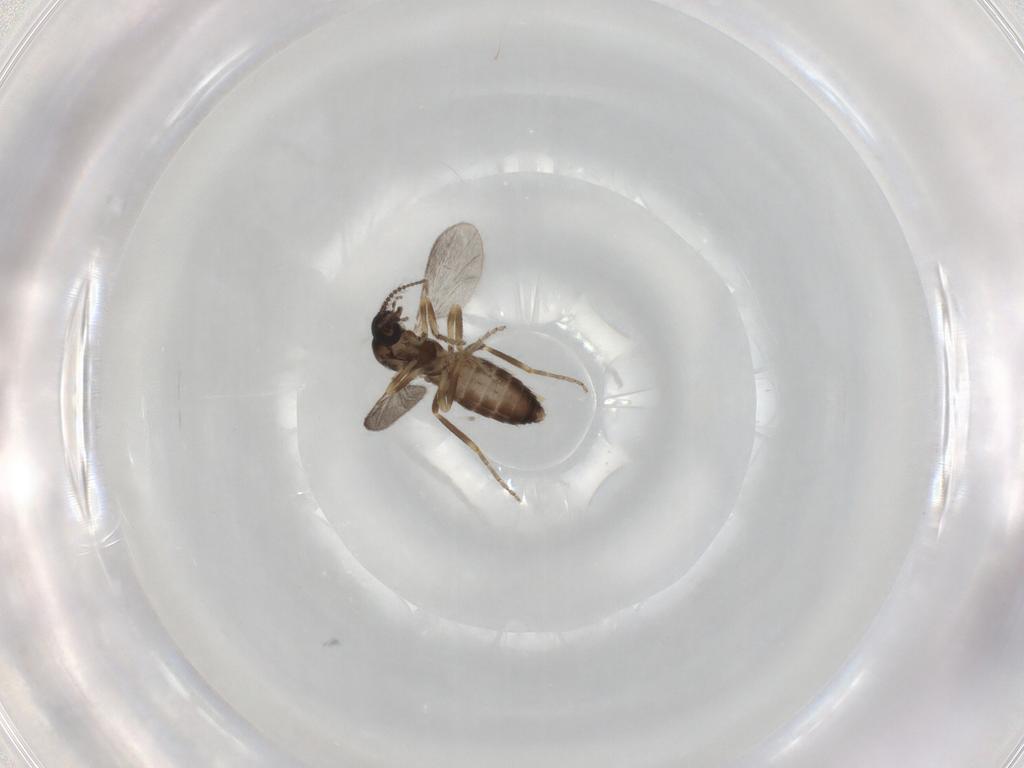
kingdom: Animalia
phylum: Arthropoda
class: Insecta
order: Diptera
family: Ceratopogonidae
